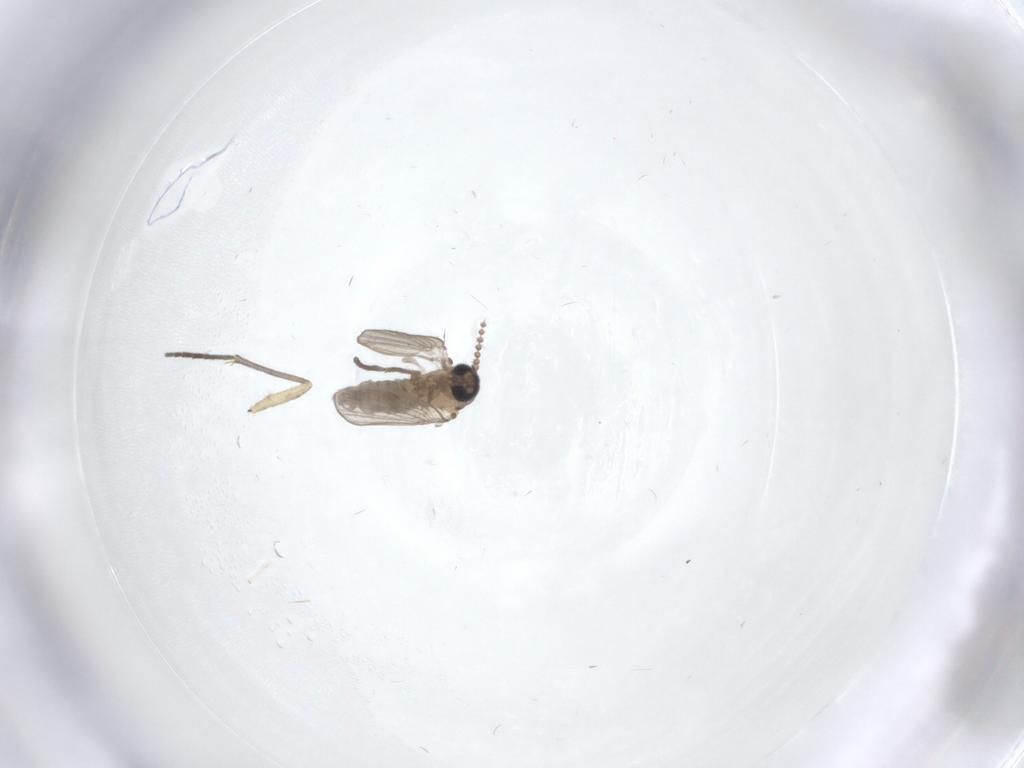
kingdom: Animalia
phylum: Arthropoda
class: Insecta
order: Diptera
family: Sciaridae
